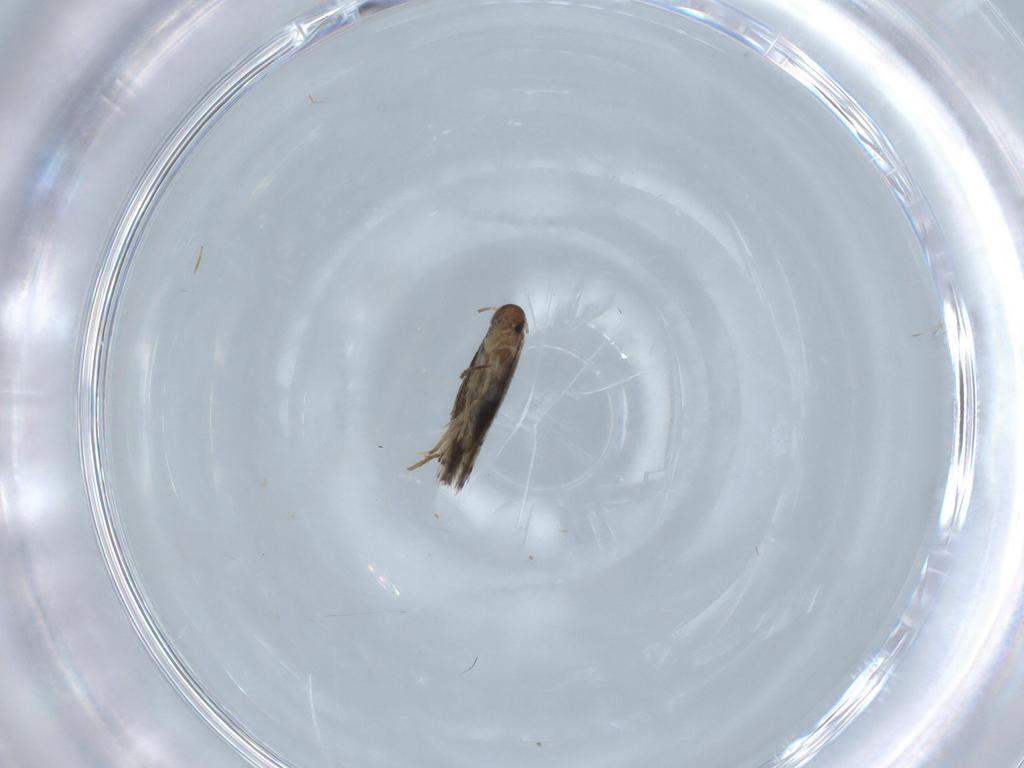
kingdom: Animalia
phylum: Arthropoda
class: Insecta
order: Lepidoptera
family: Heliozelidae
